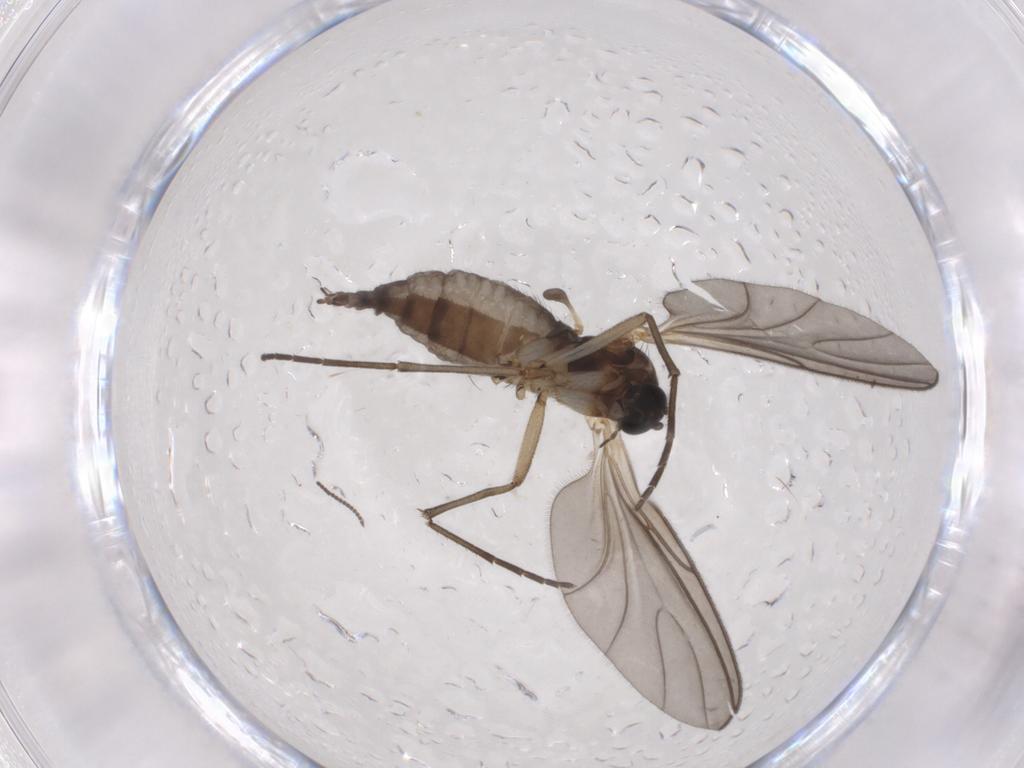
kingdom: Animalia
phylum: Arthropoda
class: Insecta
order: Diptera
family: Sciaridae
